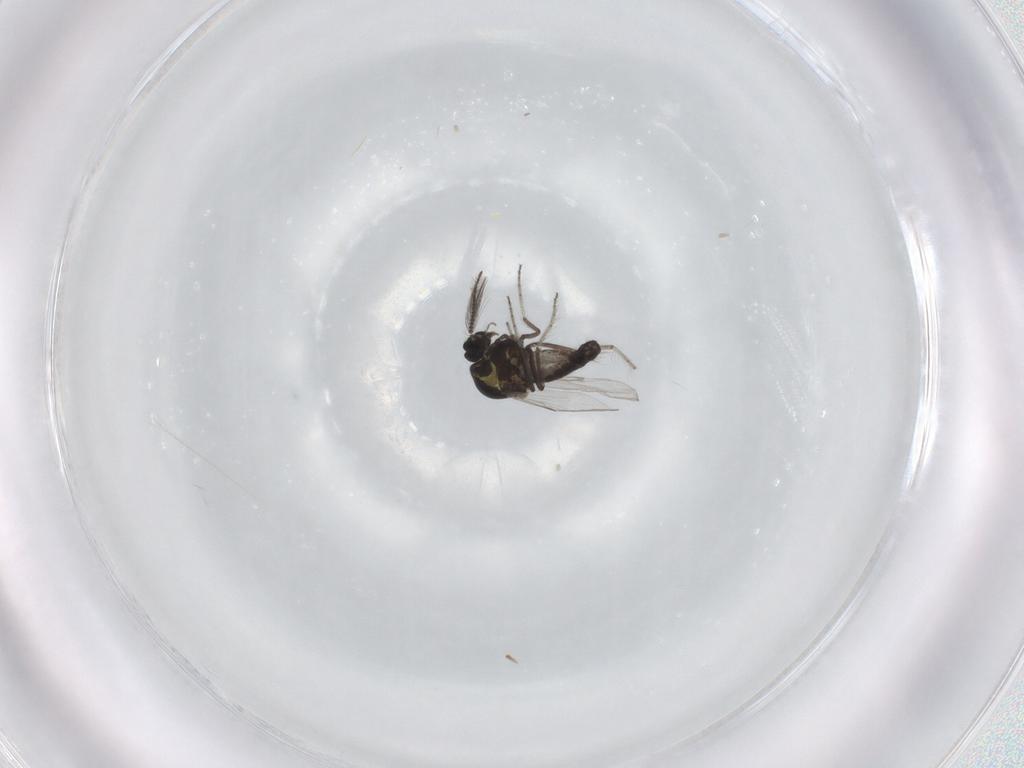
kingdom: Animalia
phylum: Arthropoda
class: Insecta
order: Diptera
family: Ceratopogonidae
